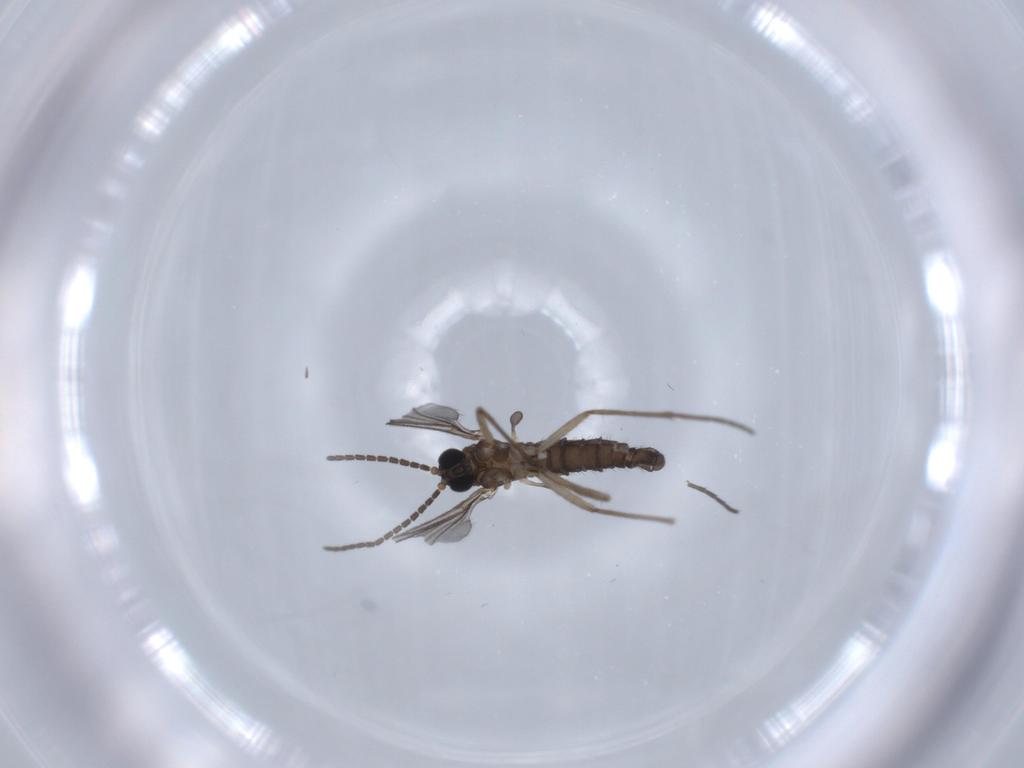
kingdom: Animalia
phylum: Arthropoda
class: Insecta
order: Diptera
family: Sciaridae
